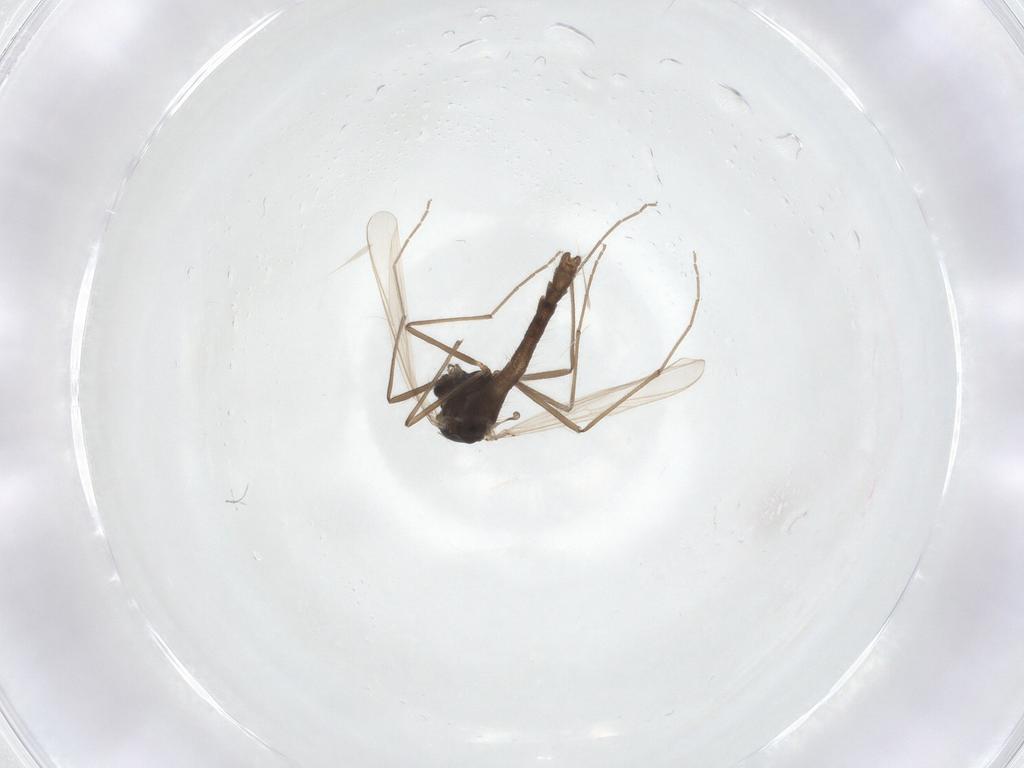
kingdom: Animalia
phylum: Arthropoda
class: Insecta
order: Diptera
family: Chironomidae
